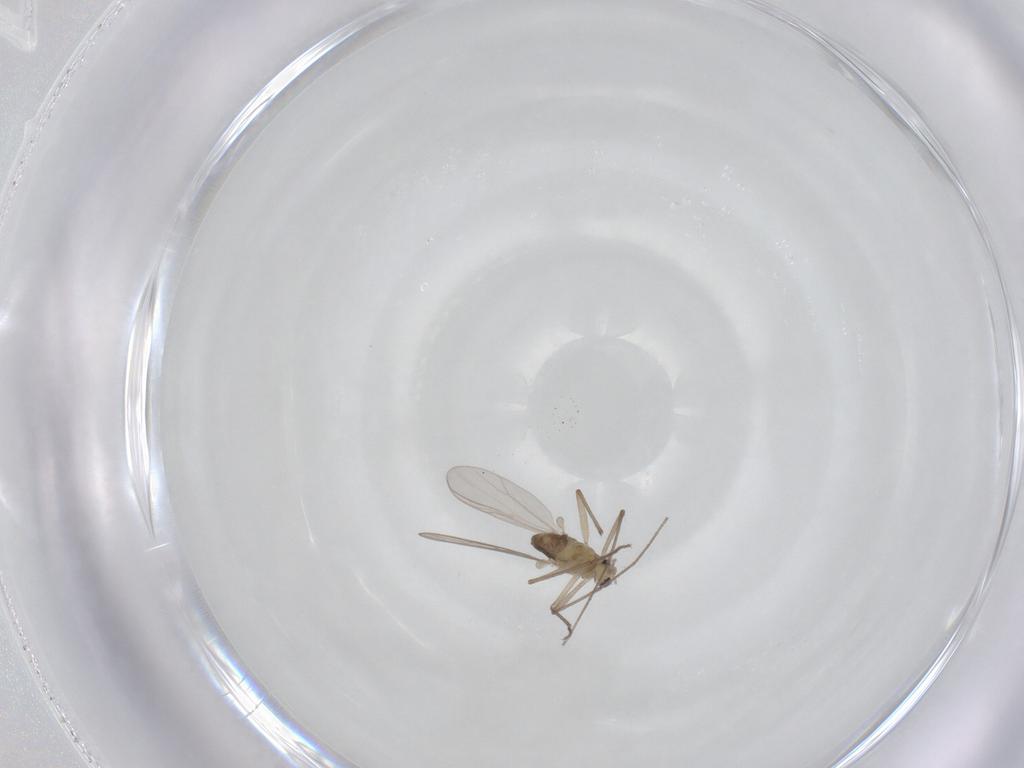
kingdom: Animalia
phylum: Arthropoda
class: Insecta
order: Diptera
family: Chironomidae
